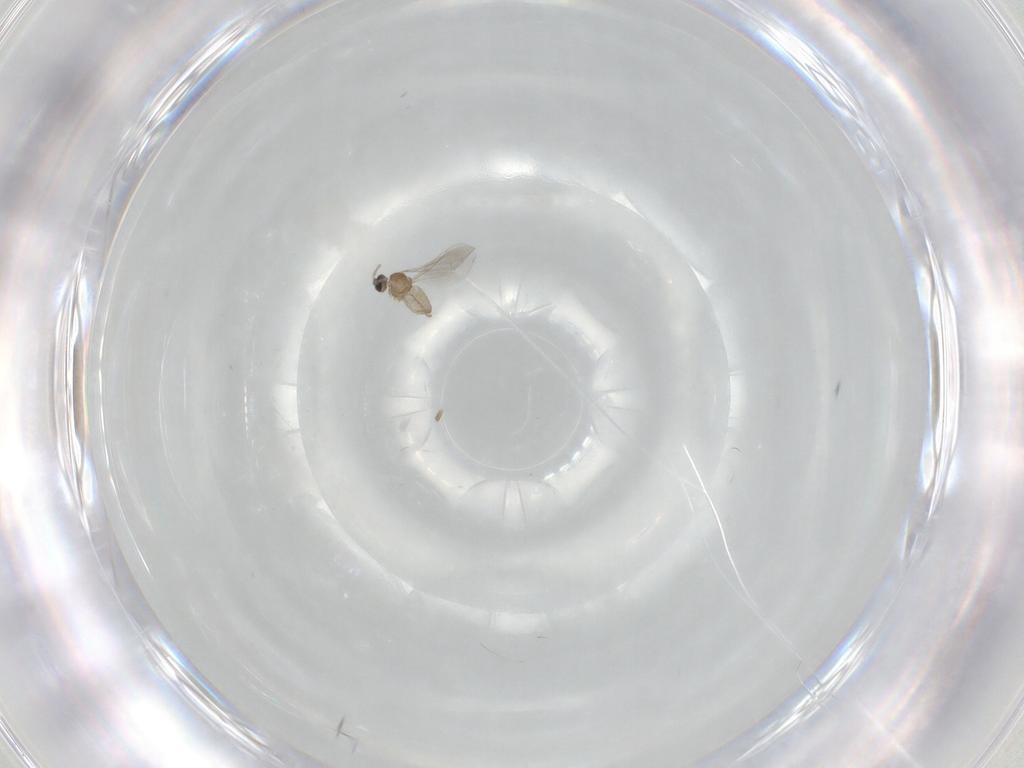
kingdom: Animalia
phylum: Arthropoda
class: Insecta
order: Diptera
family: Cecidomyiidae
